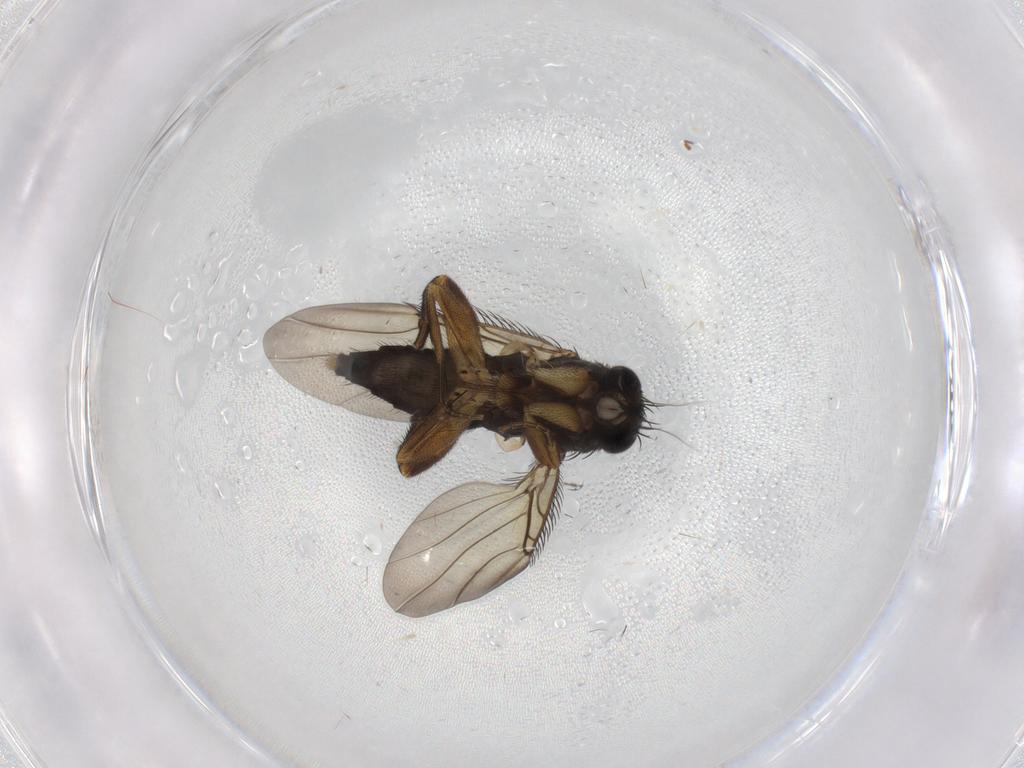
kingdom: Animalia
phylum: Arthropoda
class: Insecta
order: Diptera
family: Phoridae
